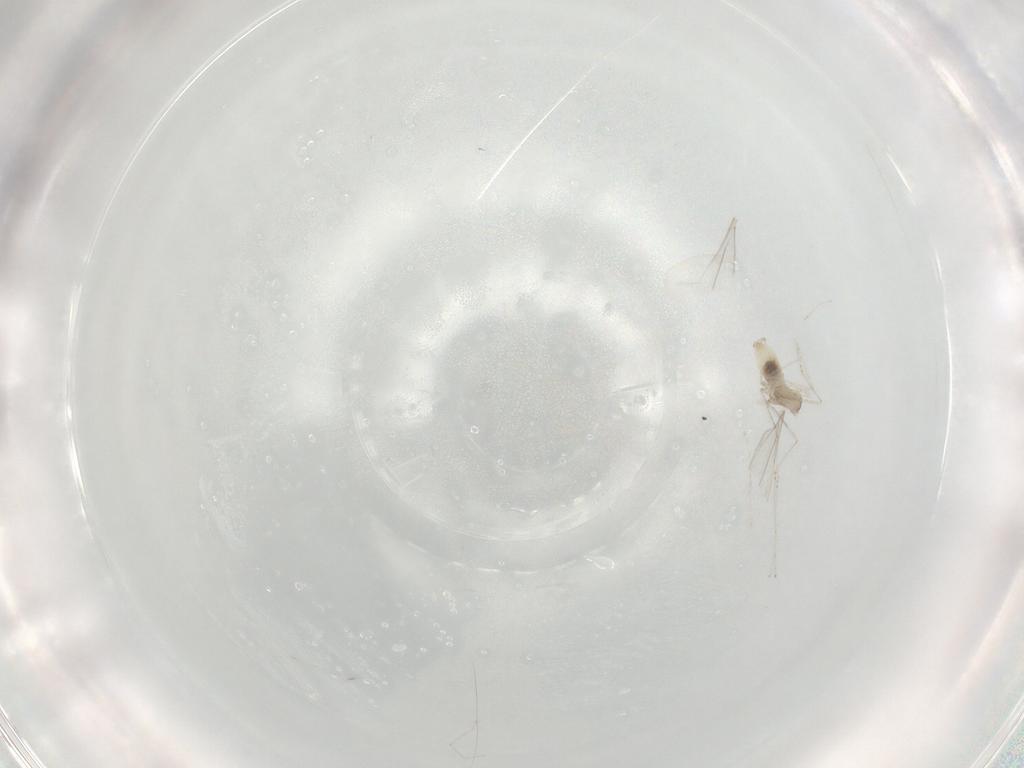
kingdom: Animalia
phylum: Arthropoda
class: Insecta
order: Diptera
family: Cecidomyiidae
